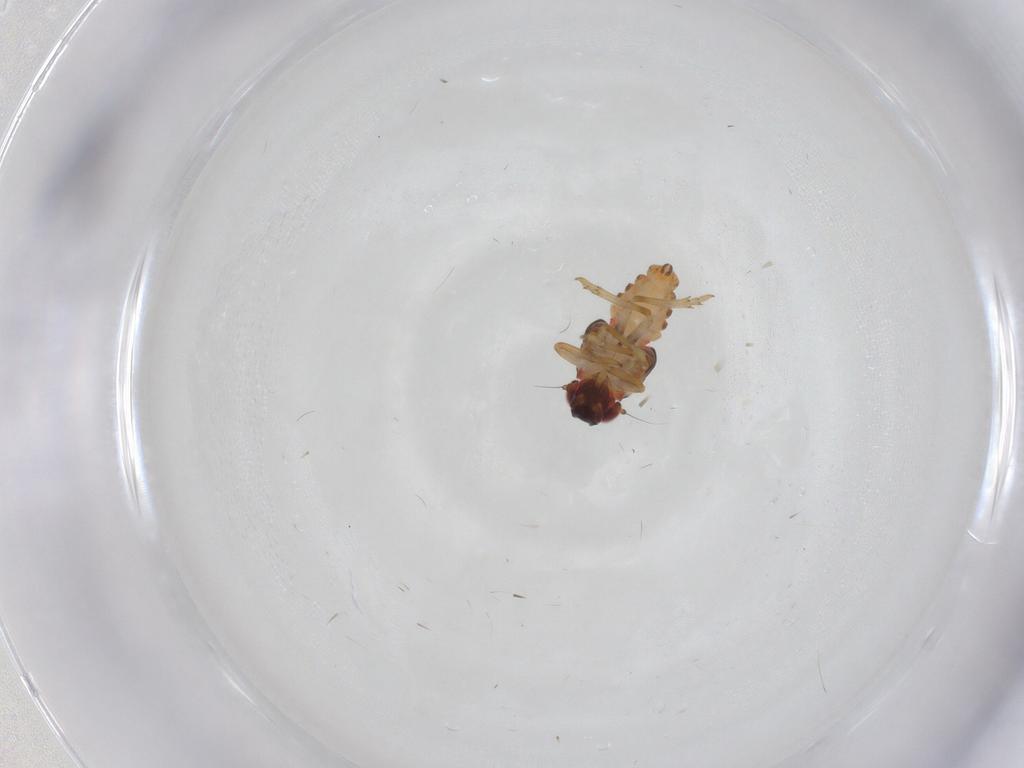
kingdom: Animalia
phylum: Arthropoda
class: Insecta
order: Hemiptera
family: Issidae
